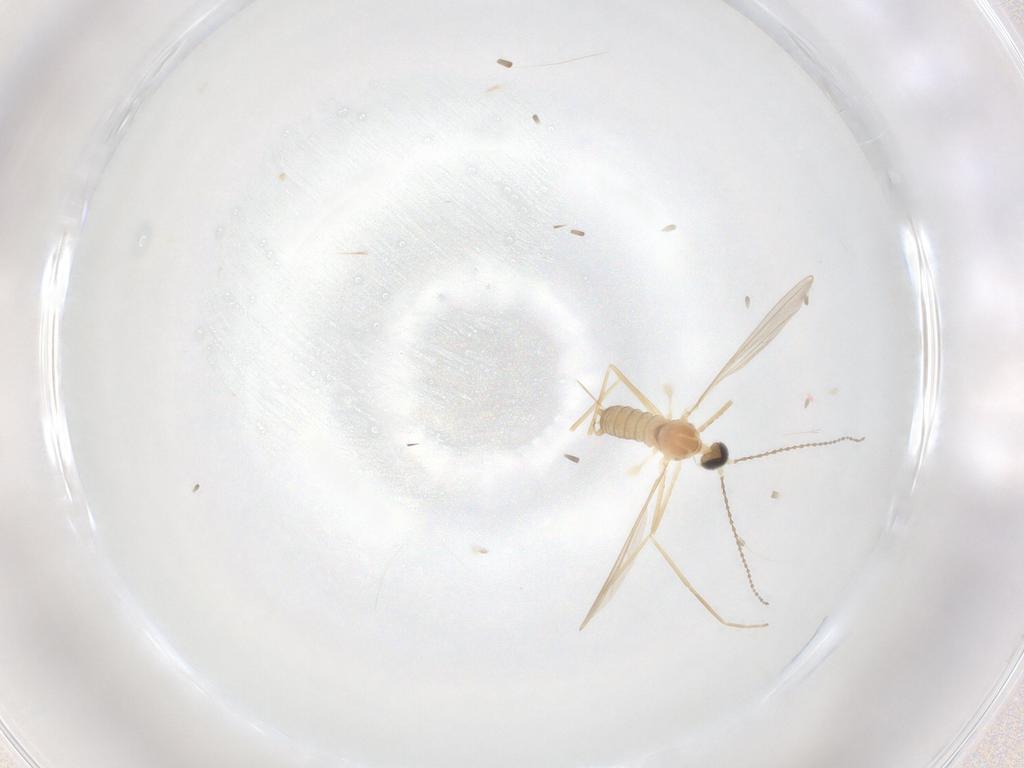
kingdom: Animalia
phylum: Arthropoda
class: Insecta
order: Diptera
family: Cecidomyiidae
